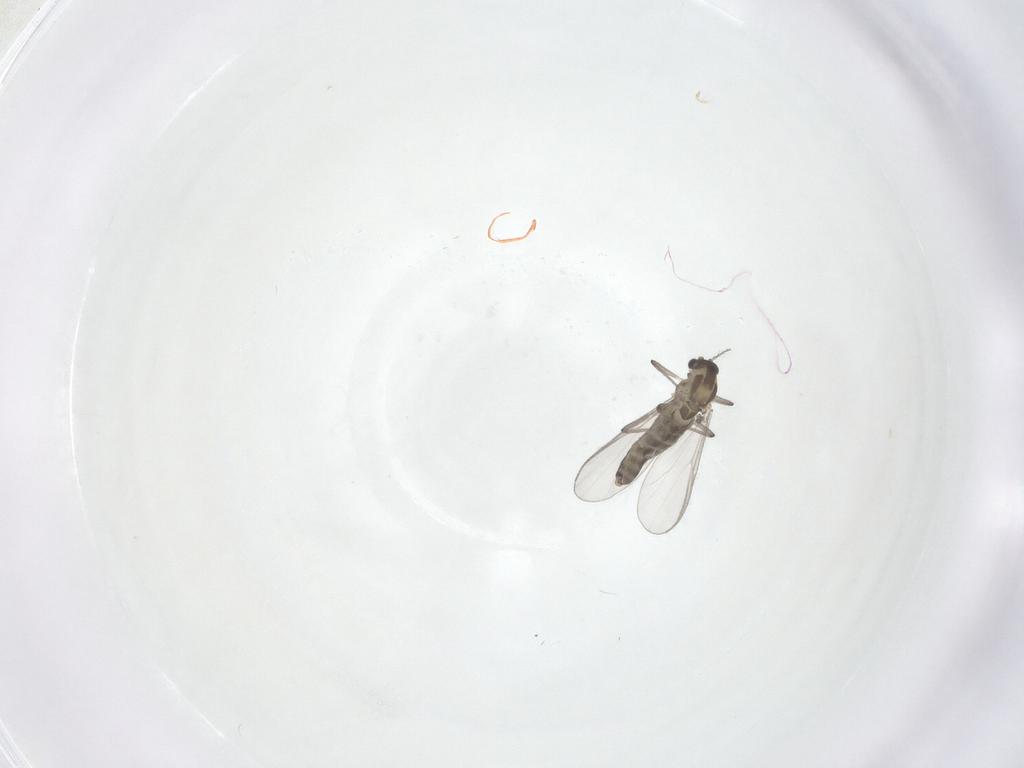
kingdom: Animalia
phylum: Arthropoda
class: Insecta
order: Diptera
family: Chironomidae
